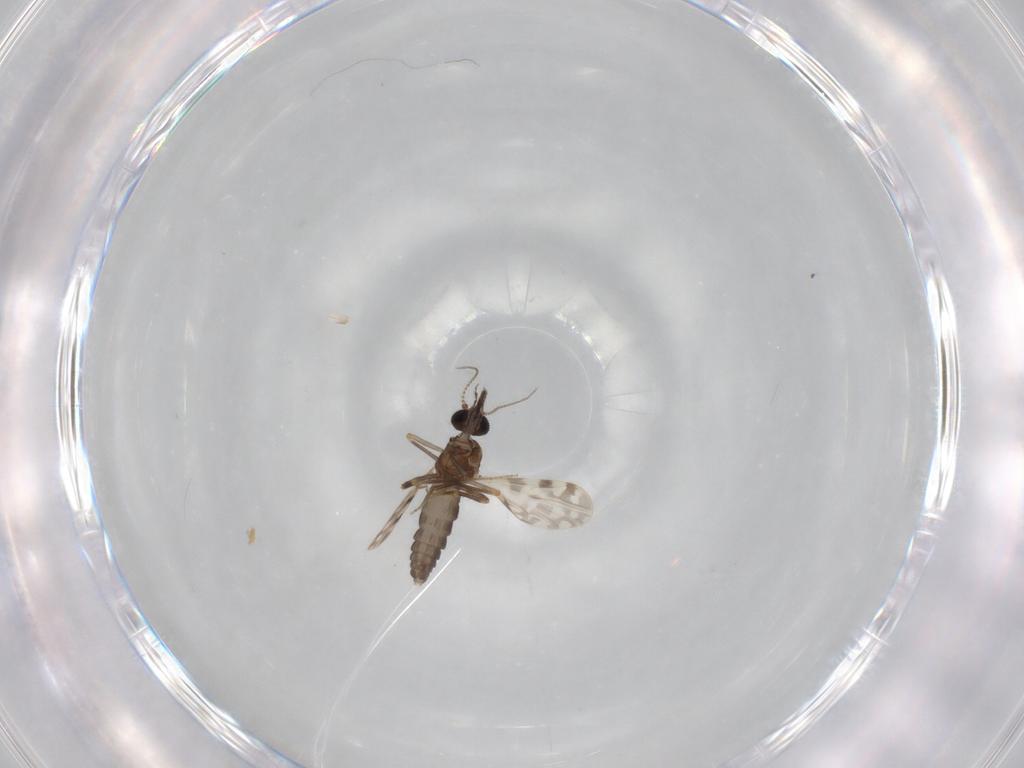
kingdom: Animalia
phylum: Arthropoda
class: Insecta
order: Diptera
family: Ceratopogonidae
